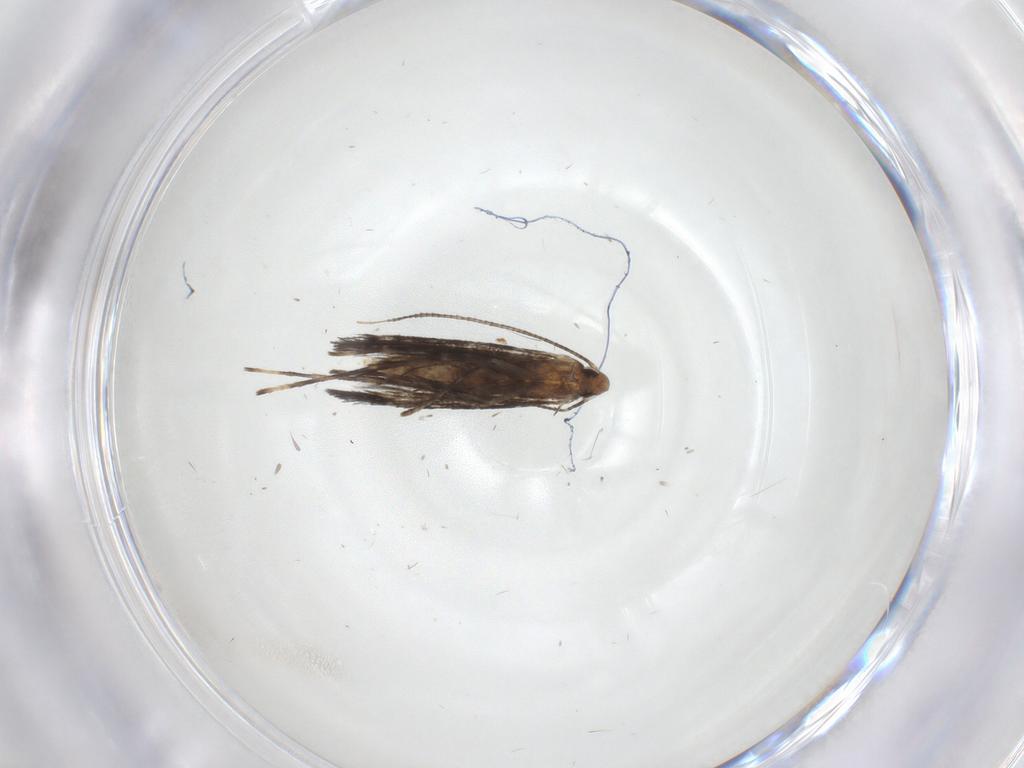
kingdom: Animalia
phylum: Arthropoda
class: Insecta
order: Lepidoptera
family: Gracillariidae
